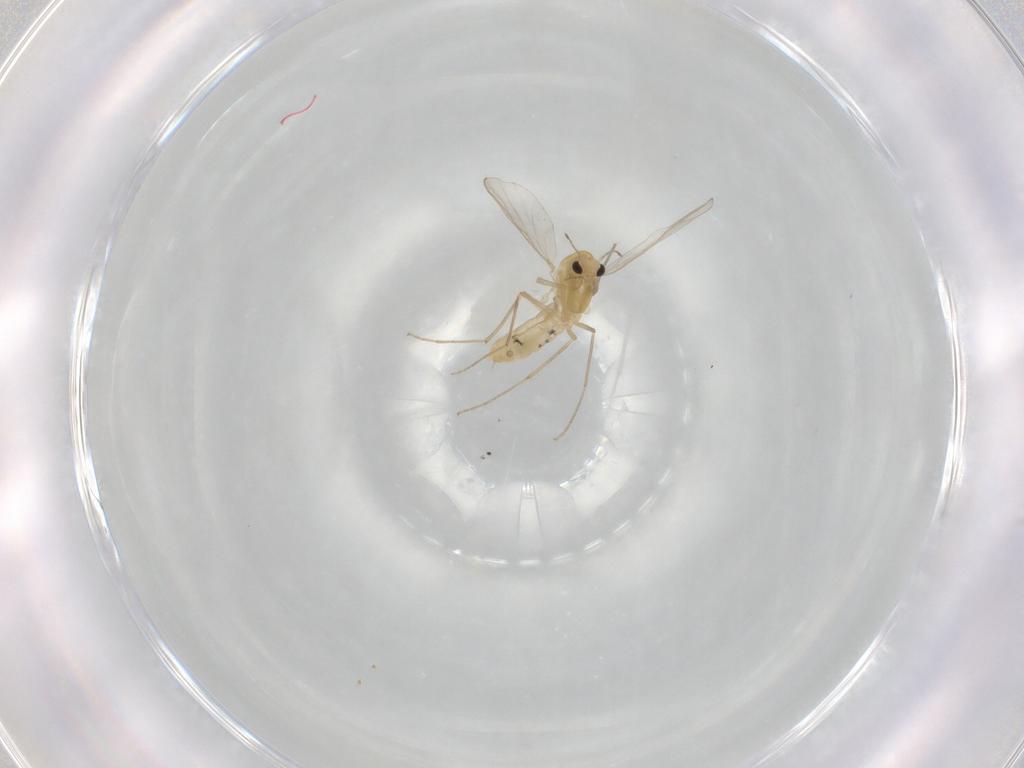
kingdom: Animalia
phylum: Arthropoda
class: Insecta
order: Diptera
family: Chironomidae
